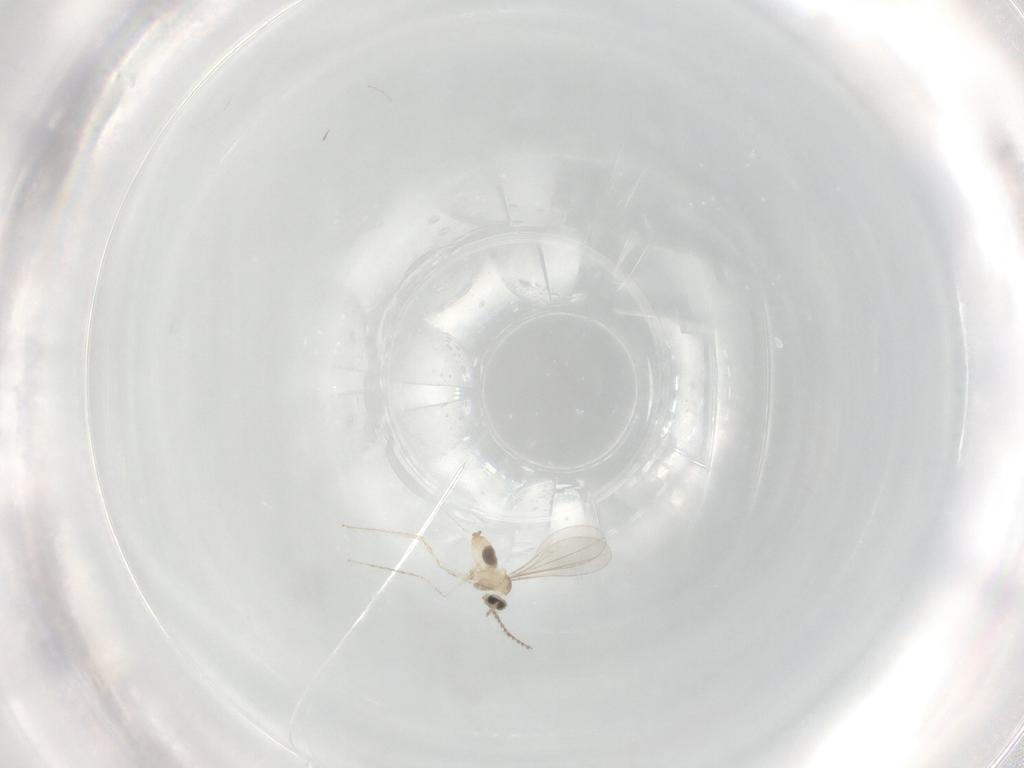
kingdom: Animalia
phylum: Arthropoda
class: Insecta
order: Diptera
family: Cecidomyiidae
